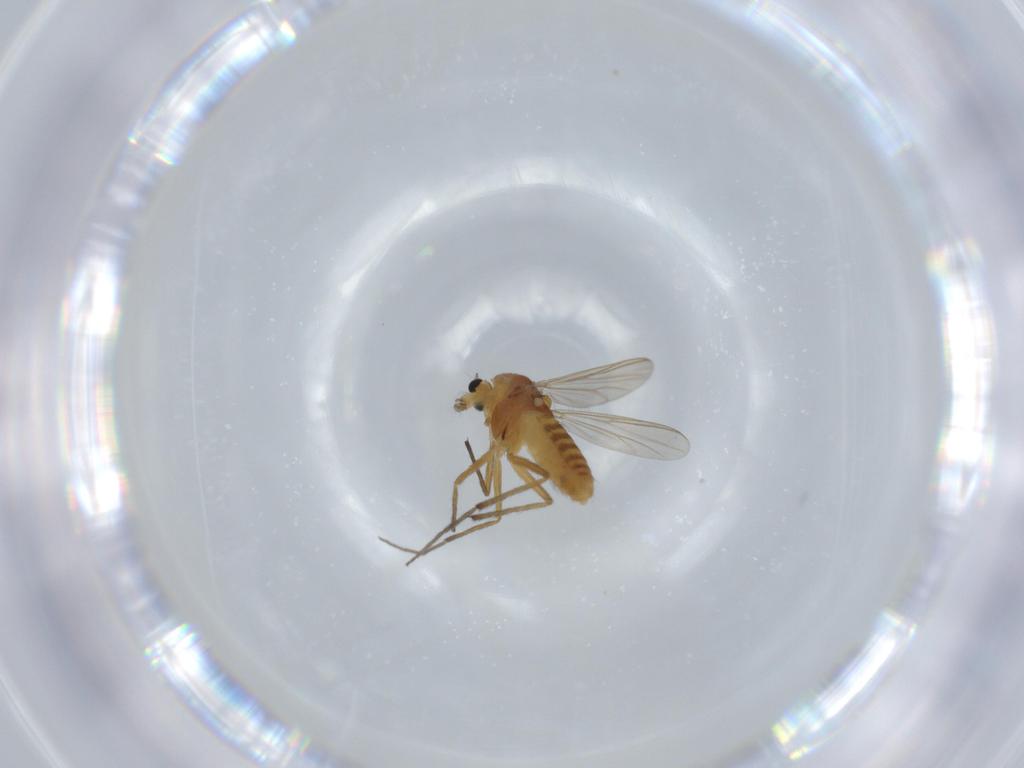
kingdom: Animalia
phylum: Arthropoda
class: Insecta
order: Diptera
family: Chironomidae
